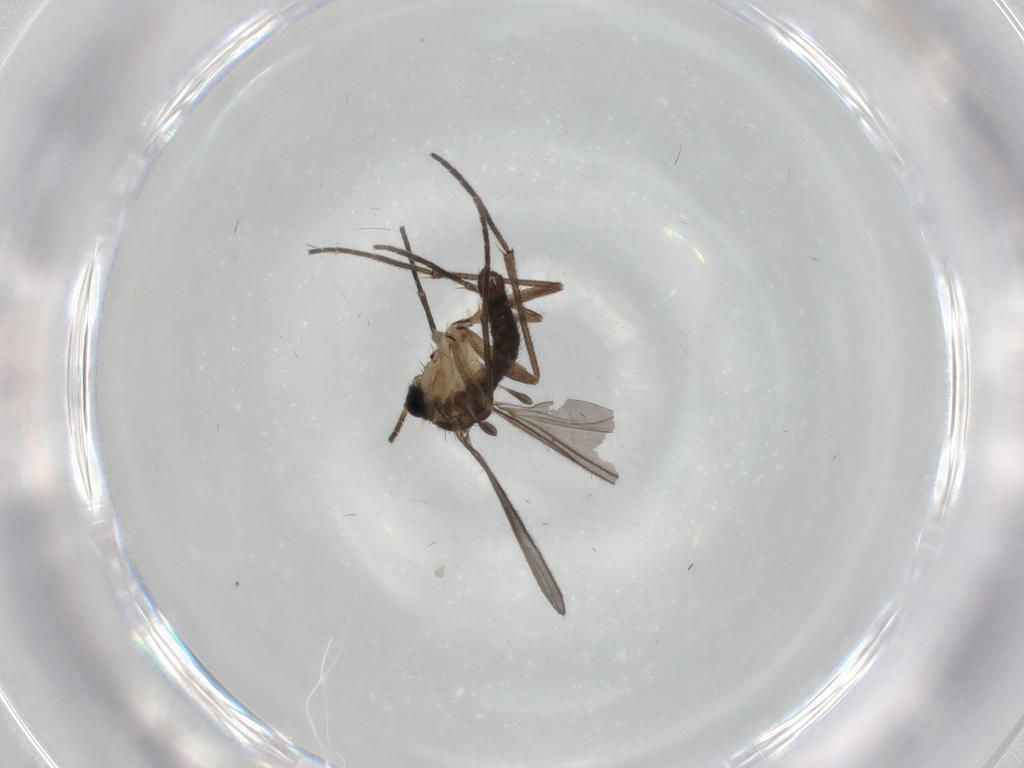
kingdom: Animalia
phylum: Arthropoda
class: Insecta
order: Diptera
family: Sciaridae
